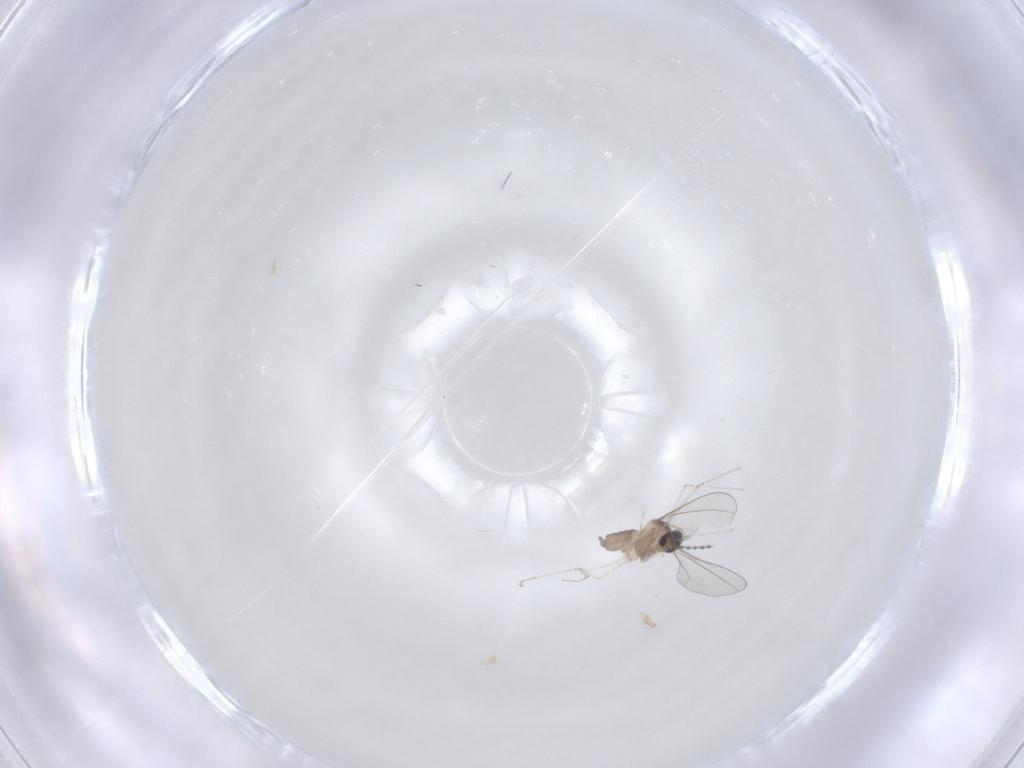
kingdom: Animalia
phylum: Arthropoda
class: Insecta
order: Diptera
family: Cecidomyiidae
